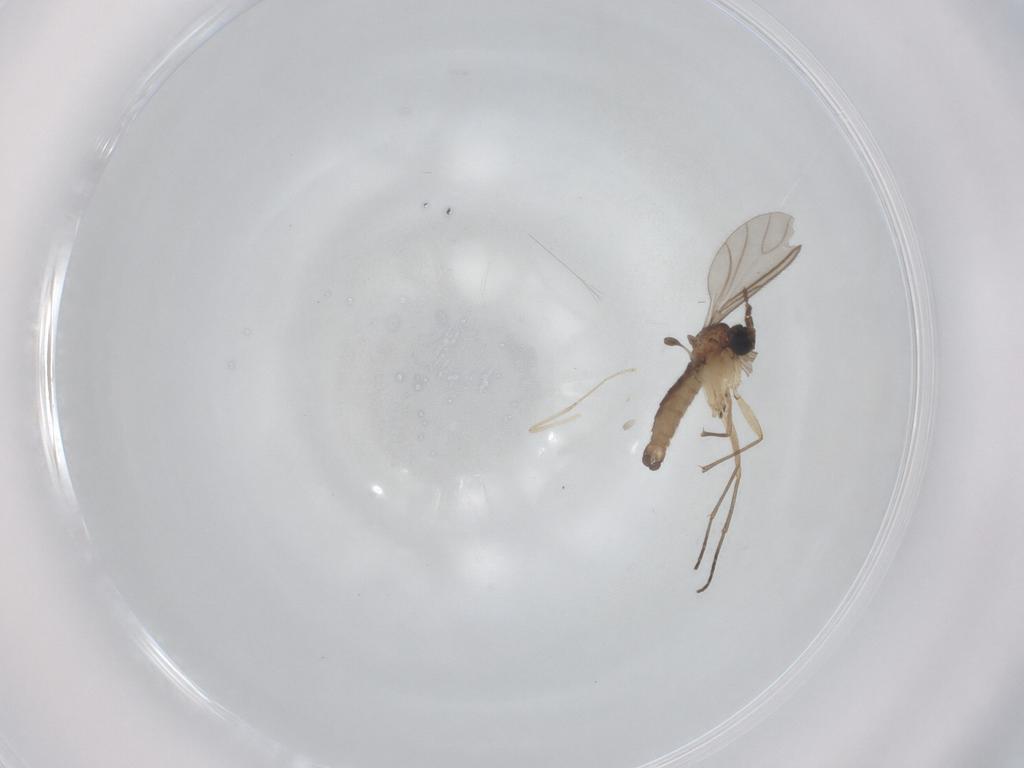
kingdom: Animalia
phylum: Arthropoda
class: Insecta
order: Diptera
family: Cecidomyiidae
